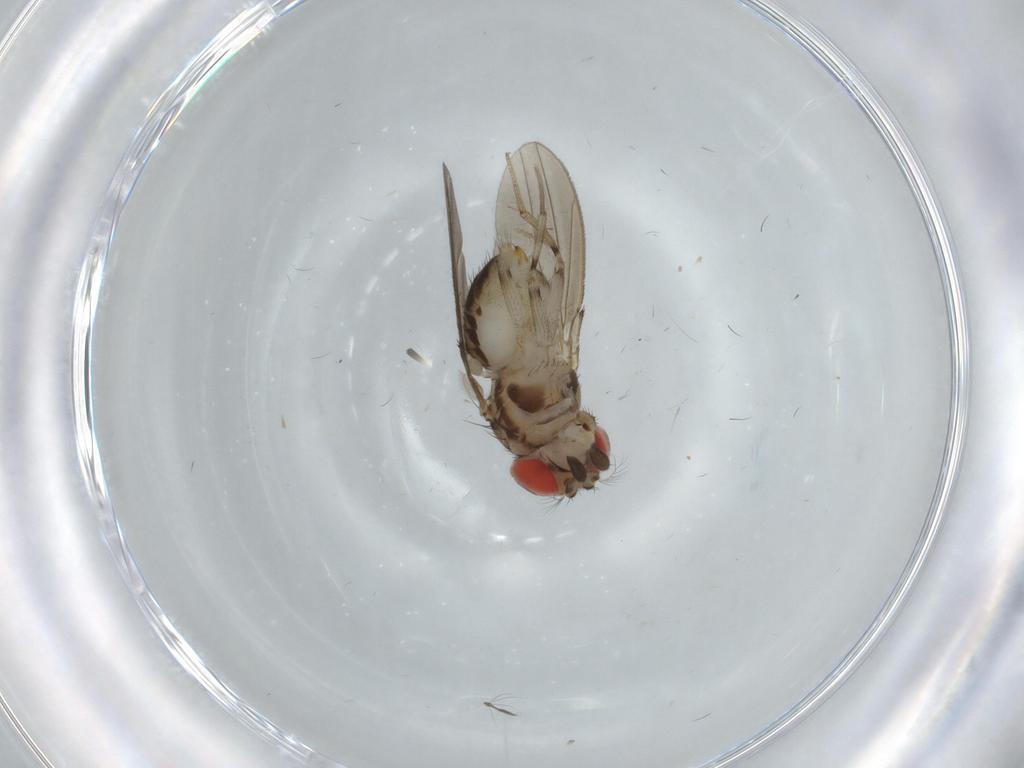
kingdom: Animalia
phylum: Arthropoda
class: Insecta
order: Diptera
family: Drosophilidae
